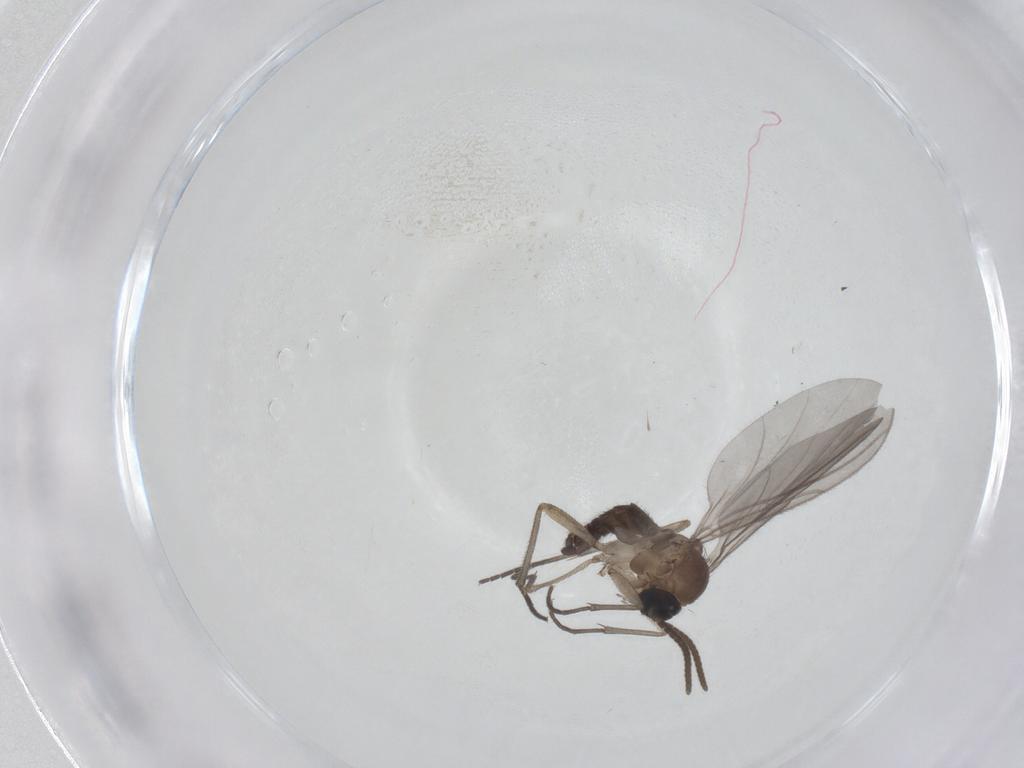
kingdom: Animalia
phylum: Arthropoda
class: Insecta
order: Diptera
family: Sciaridae
